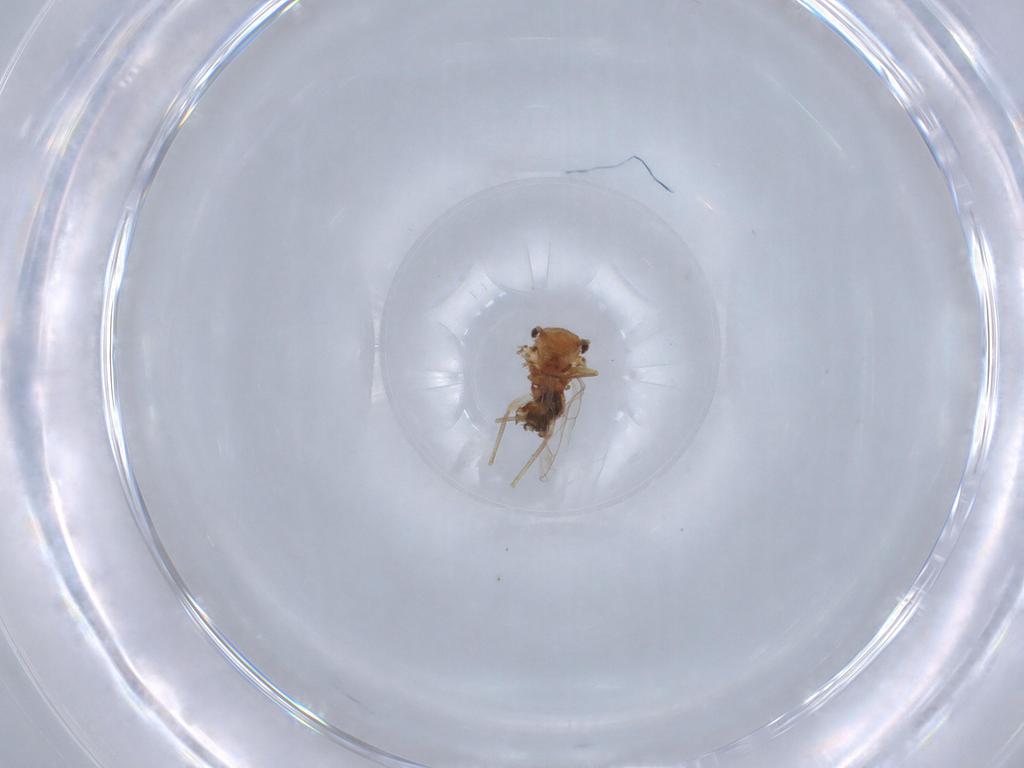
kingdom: Animalia
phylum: Arthropoda
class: Insecta
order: Psocodea
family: Ectopsocidae
